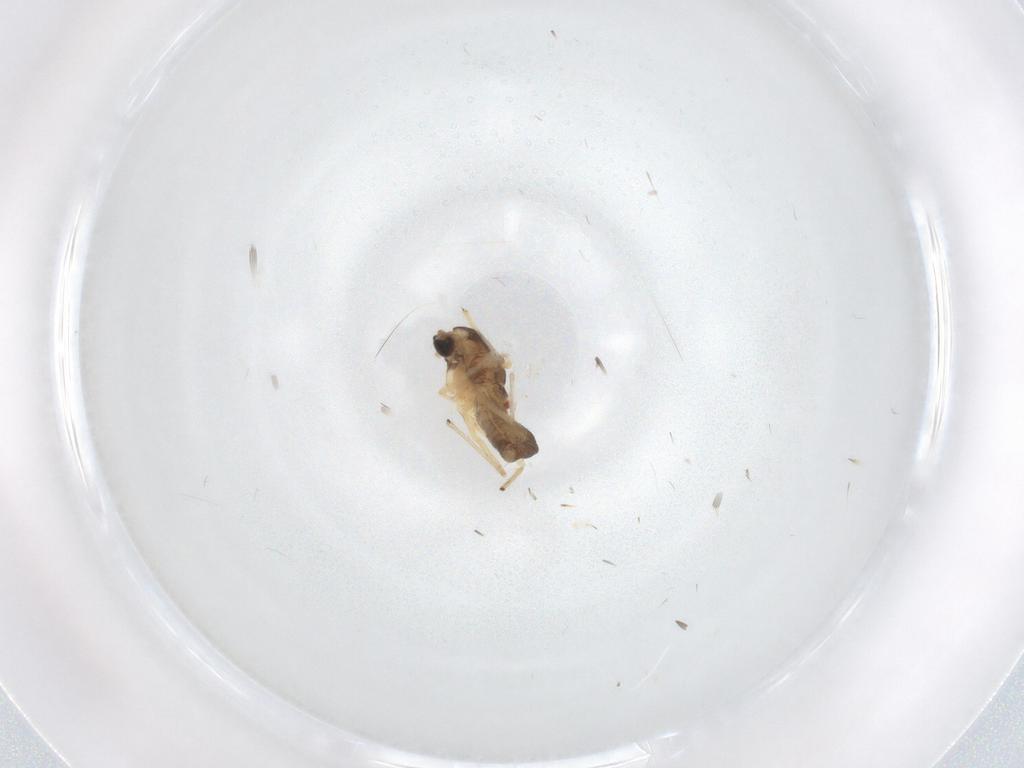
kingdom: Animalia
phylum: Arthropoda
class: Insecta
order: Diptera
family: Chironomidae
